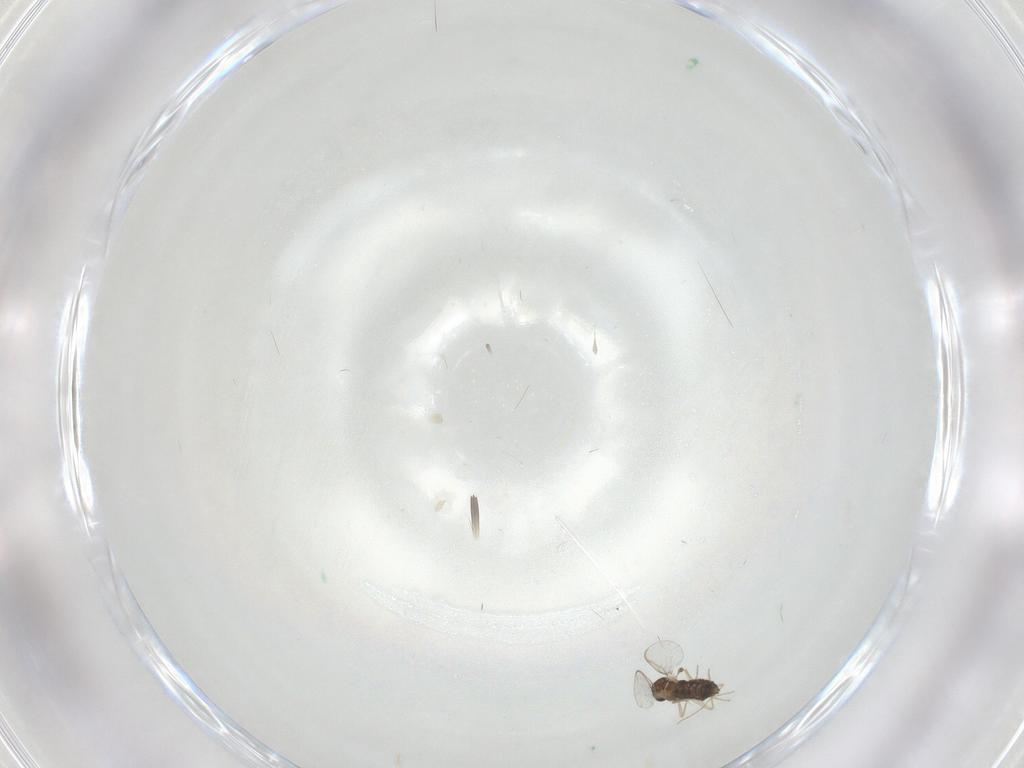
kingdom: Animalia
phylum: Arthropoda
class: Insecta
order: Diptera
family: Chironomidae
